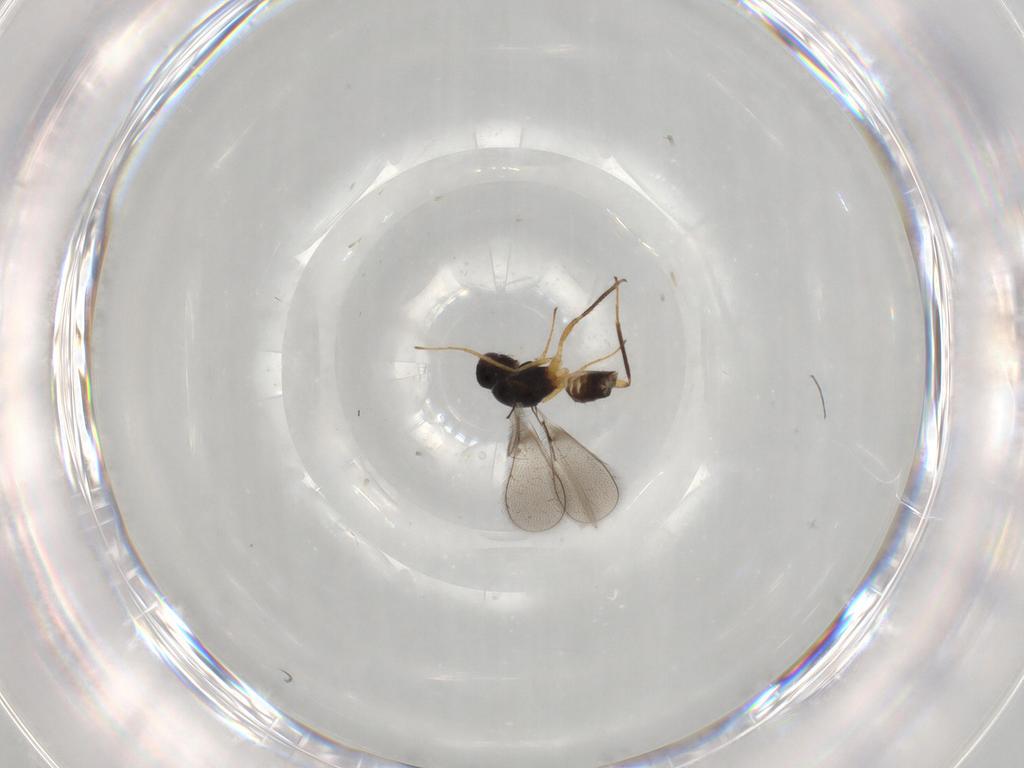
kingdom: Animalia
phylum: Arthropoda
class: Insecta
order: Hymenoptera
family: Mymaridae
